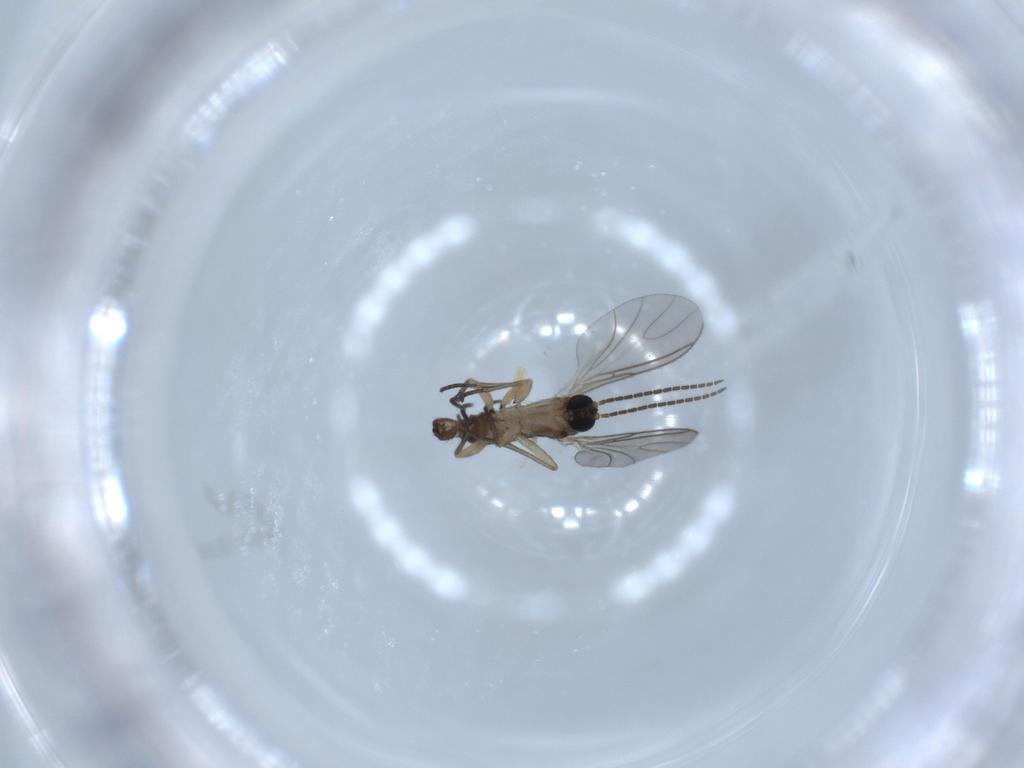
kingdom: Animalia
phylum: Arthropoda
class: Insecta
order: Diptera
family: Sciaridae
